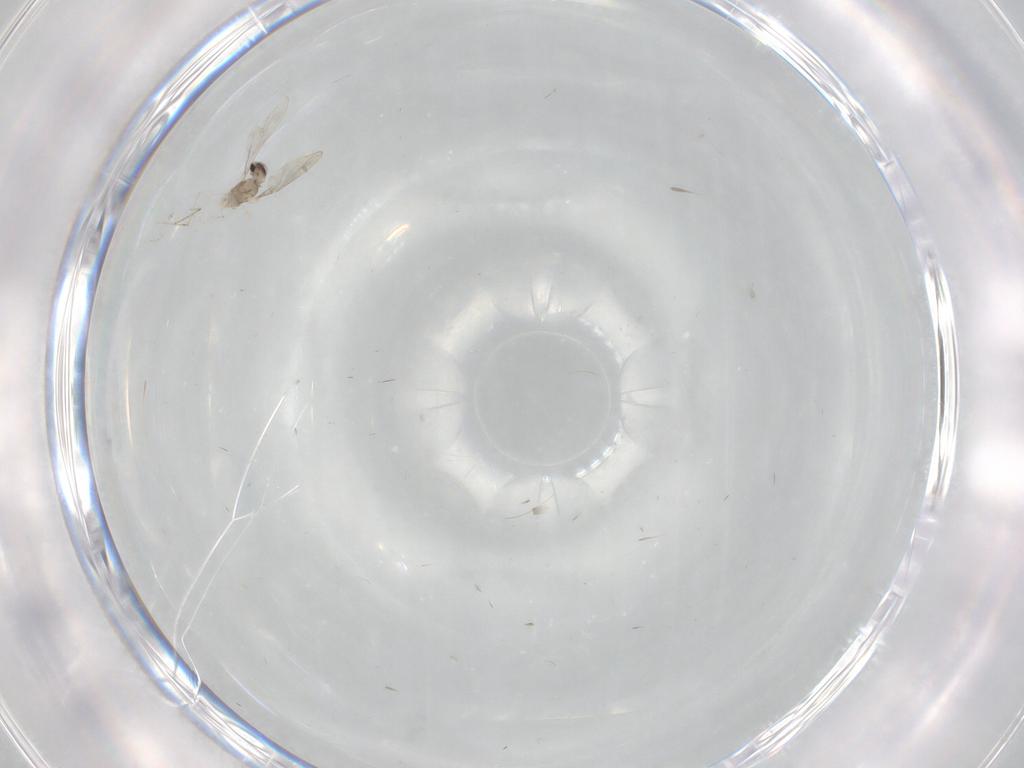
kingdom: Animalia
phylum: Arthropoda
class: Insecta
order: Diptera
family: Cecidomyiidae
